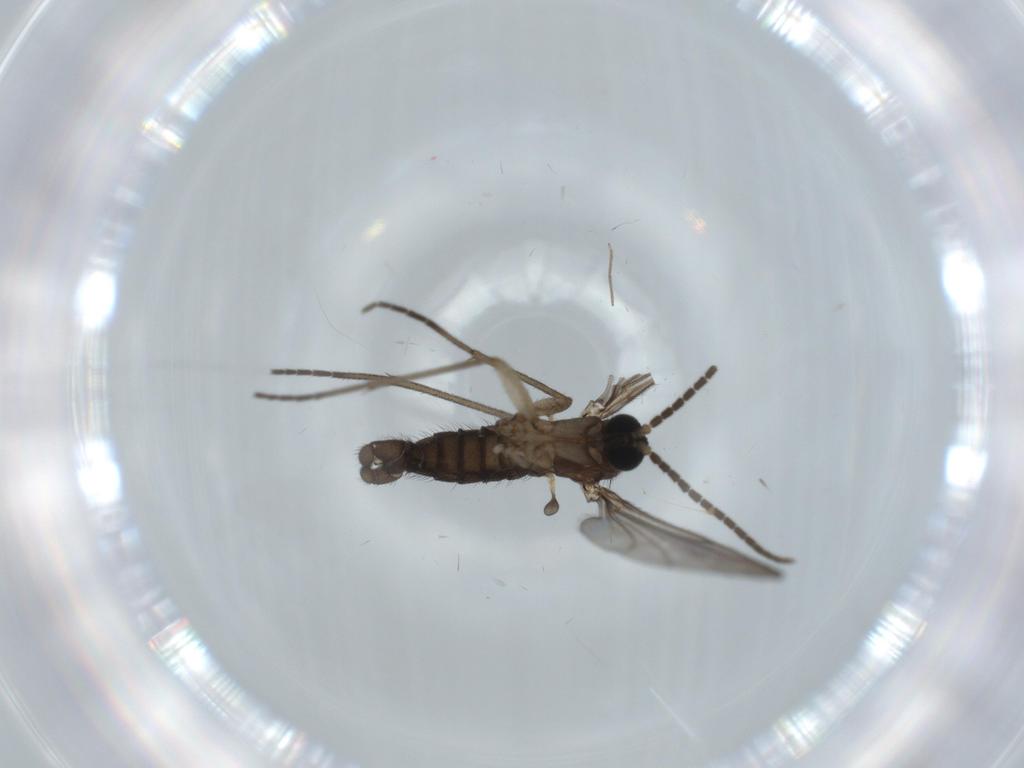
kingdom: Animalia
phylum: Arthropoda
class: Insecta
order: Diptera
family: Sciaridae
